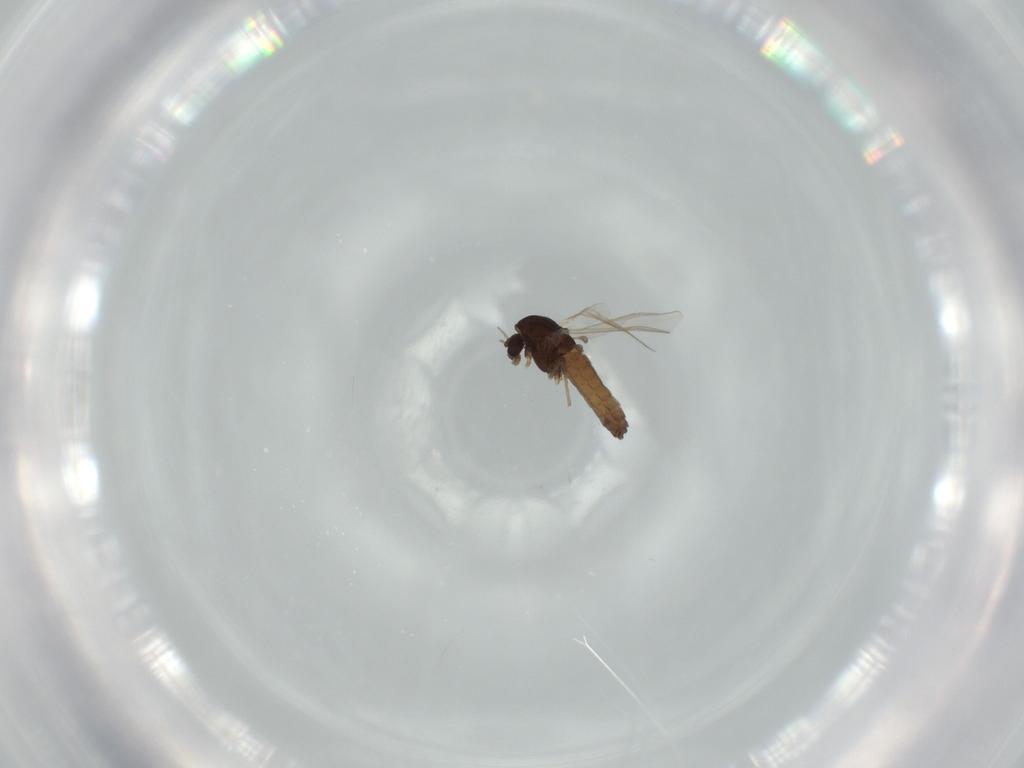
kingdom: Animalia
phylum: Arthropoda
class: Insecta
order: Diptera
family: Chironomidae
